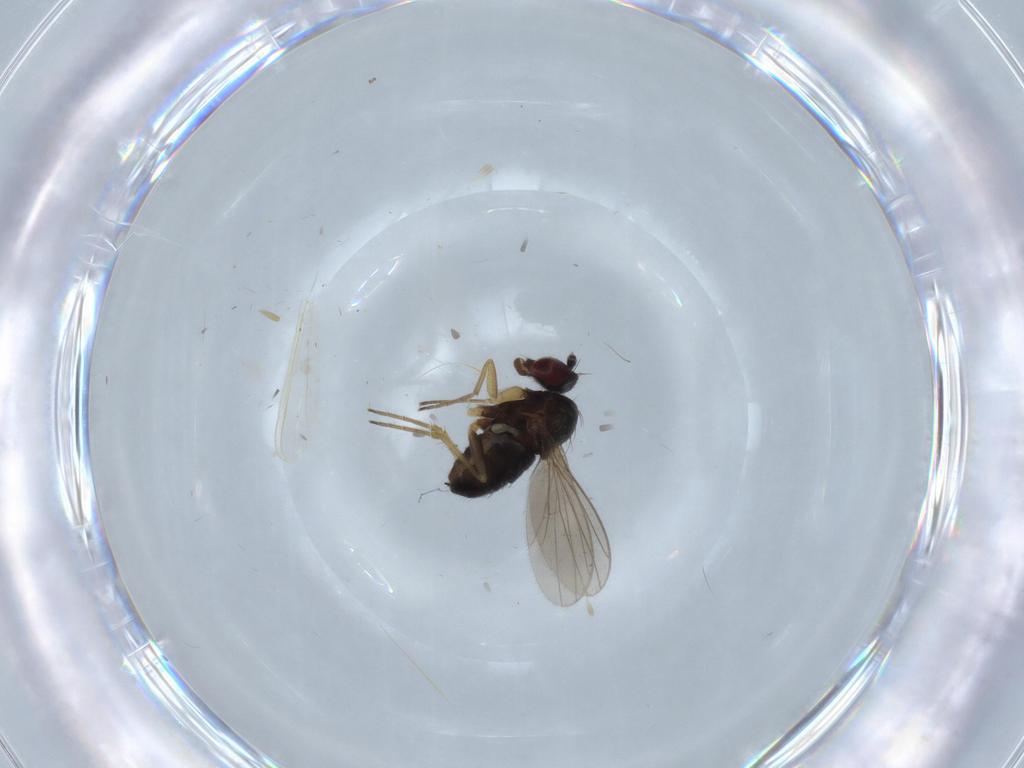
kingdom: Animalia
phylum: Arthropoda
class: Insecta
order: Diptera
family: Dolichopodidae
